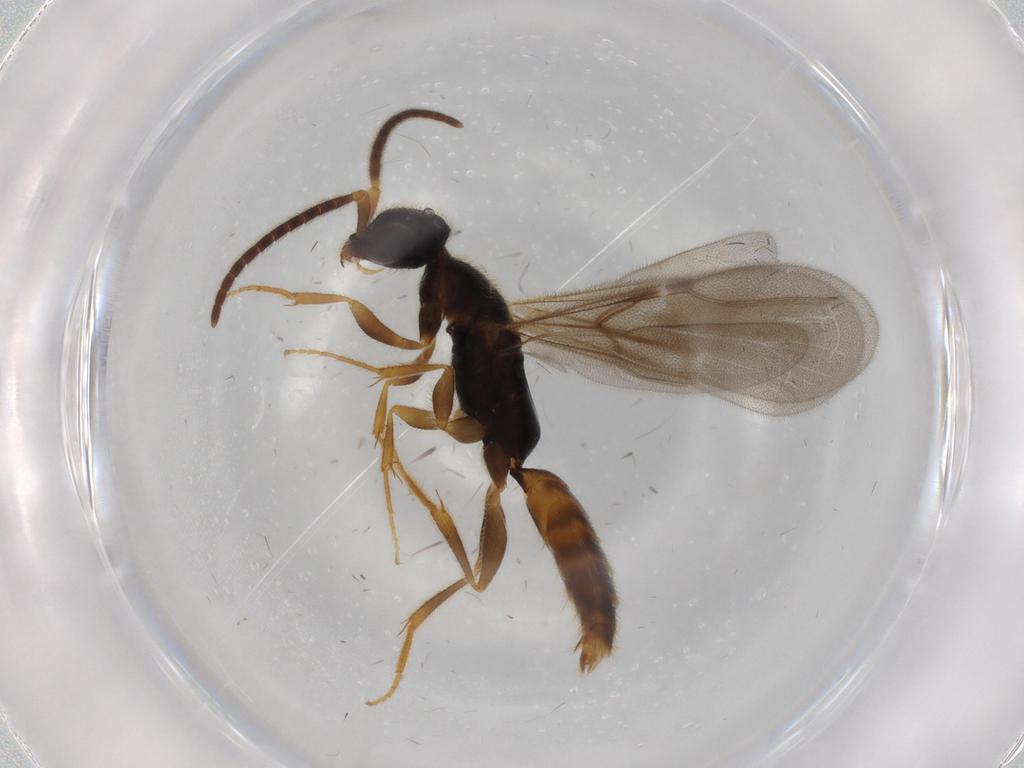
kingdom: Animalia
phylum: Arthropoda
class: Insecta
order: Hymenoptera
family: Bethylidae
